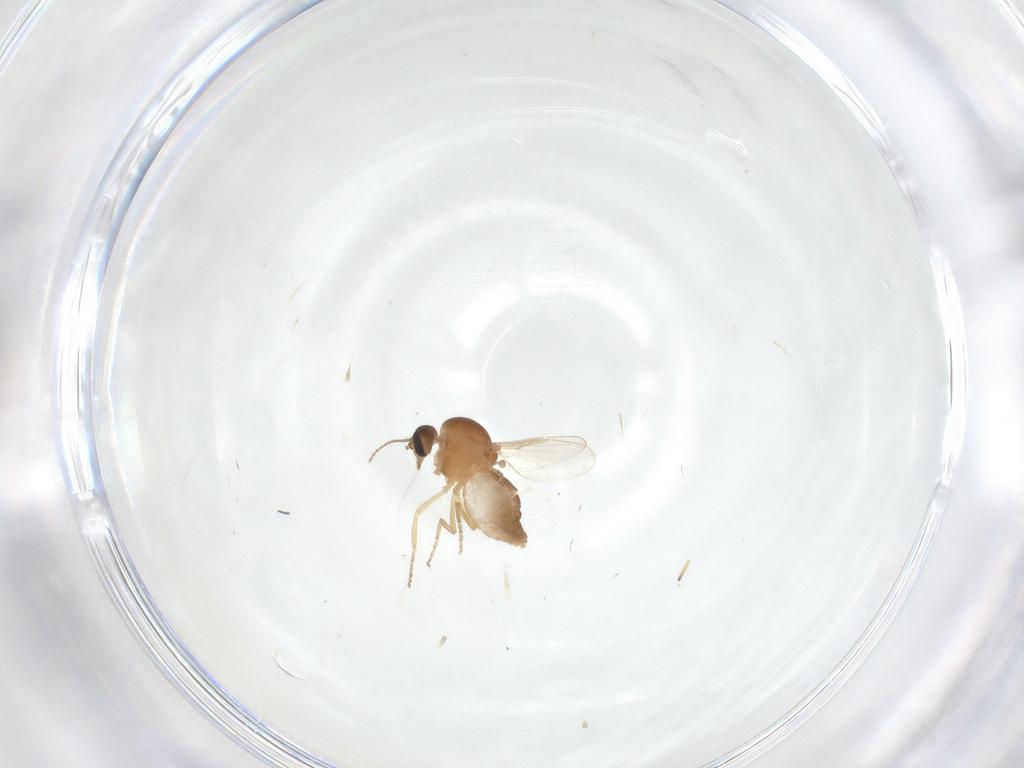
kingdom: Animalia
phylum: Arthropoda
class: Insecta
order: Diptera
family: Ceratopogonidae
